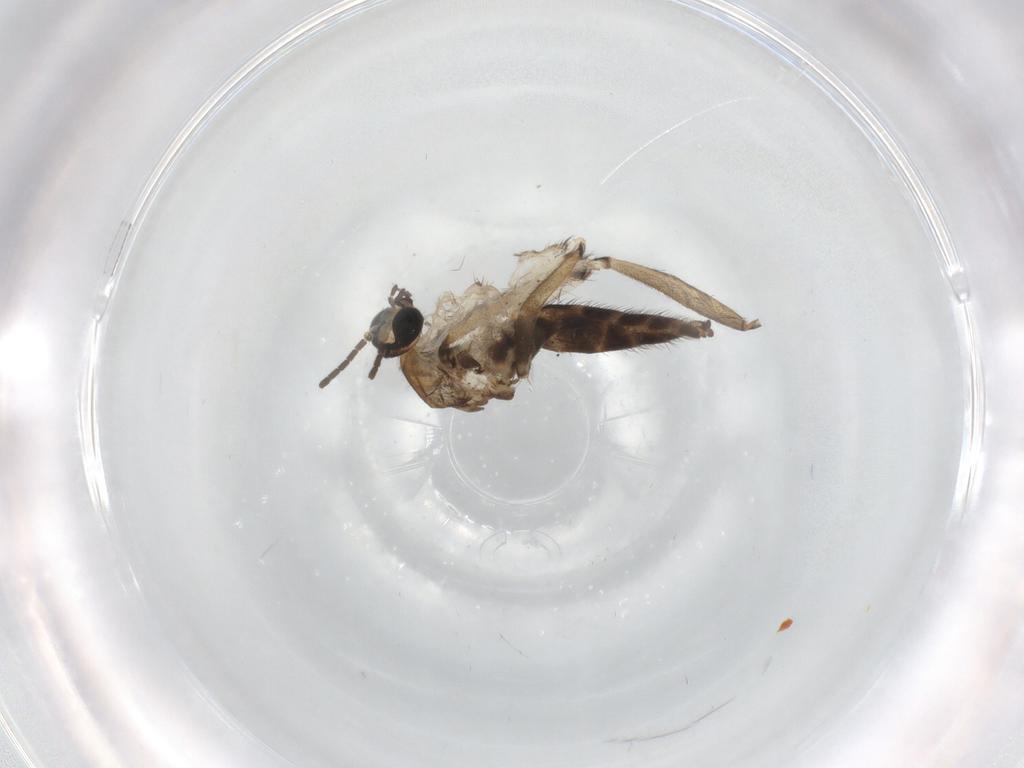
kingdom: Animalia
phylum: Arthropoda
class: Insecta
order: Diptera
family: Sciaridae
